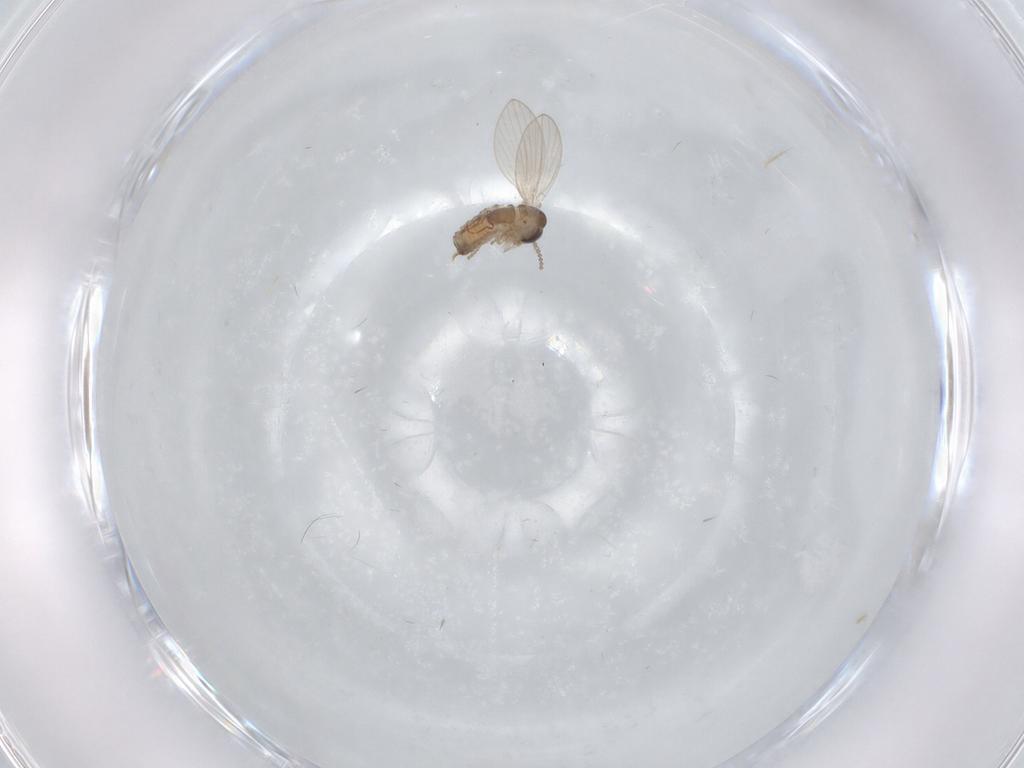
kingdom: Animalia
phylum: Arthropoda
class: Insecta
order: Diptera
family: Psychodidae
